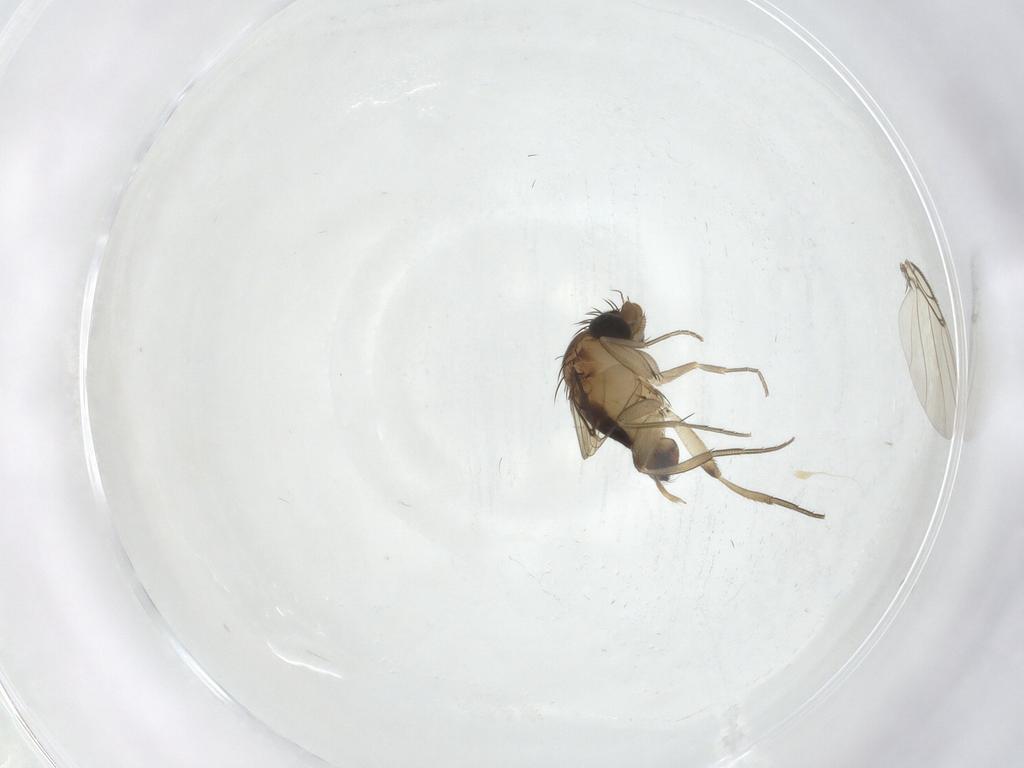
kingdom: Animalia
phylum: Arthropoda
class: Insecta
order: Diptera
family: Phoridae
